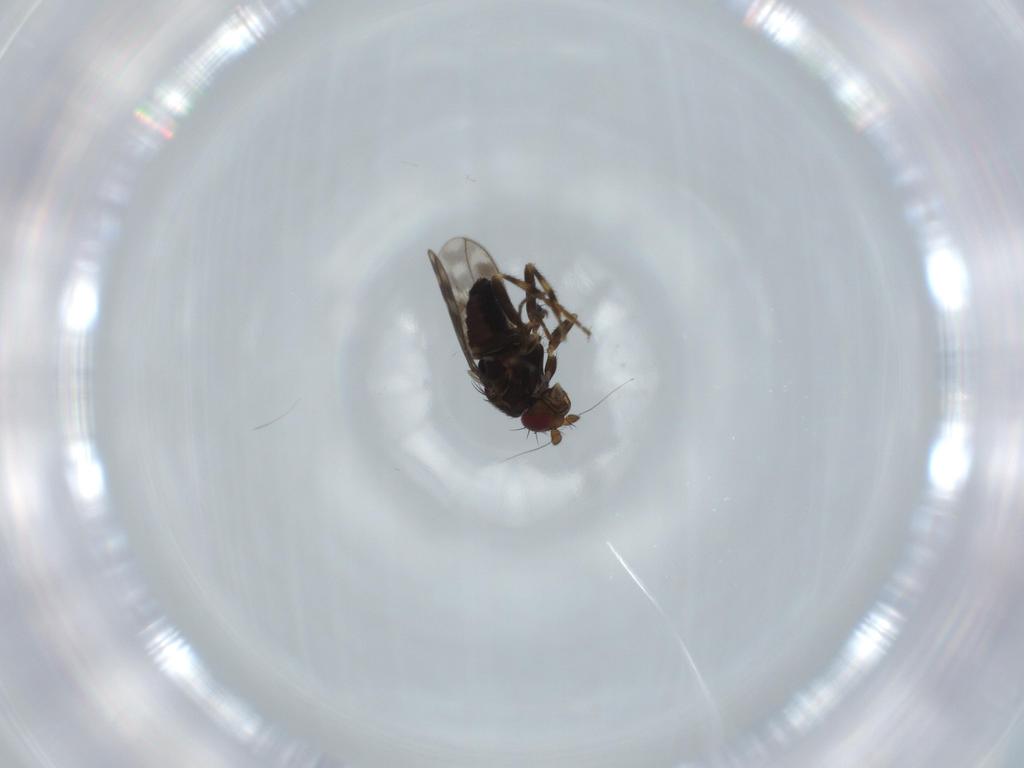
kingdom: Animalia
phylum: Arthropoda
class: Insecta
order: Diptera
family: Sphaeroceridae
